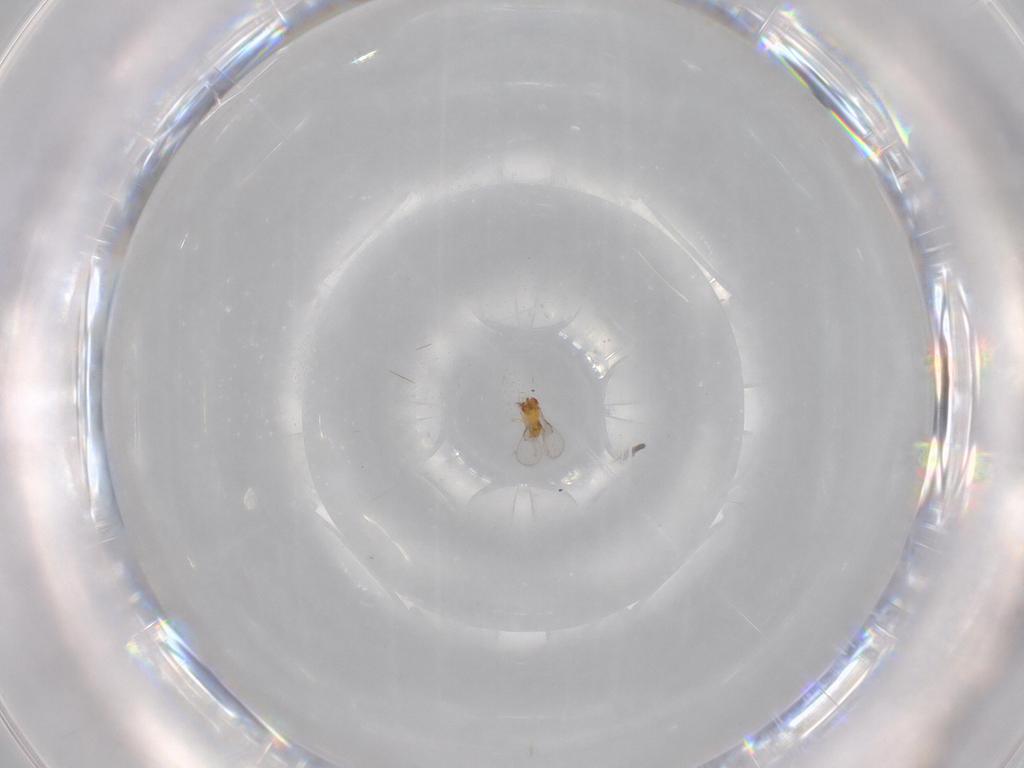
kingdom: Animalia
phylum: Arthropoda
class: Insecta
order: Hymenoptera
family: Trichogrammatidae
